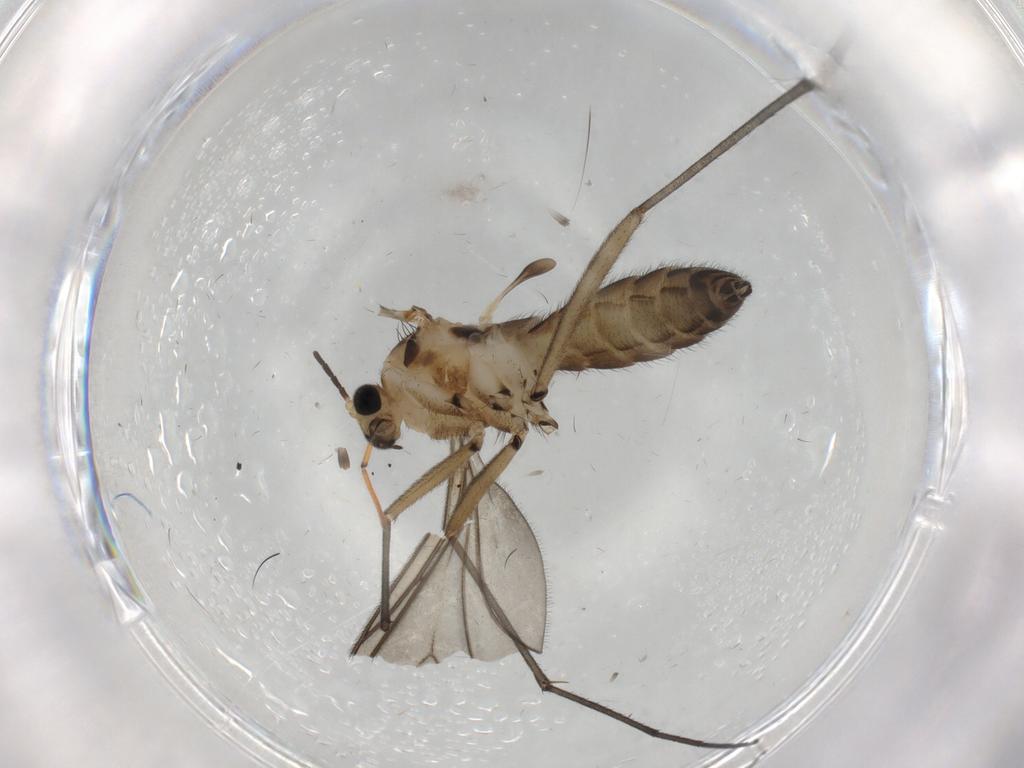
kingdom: Animalia
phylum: Arthropoda
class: Insecta
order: Diptera
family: Sciaridae
